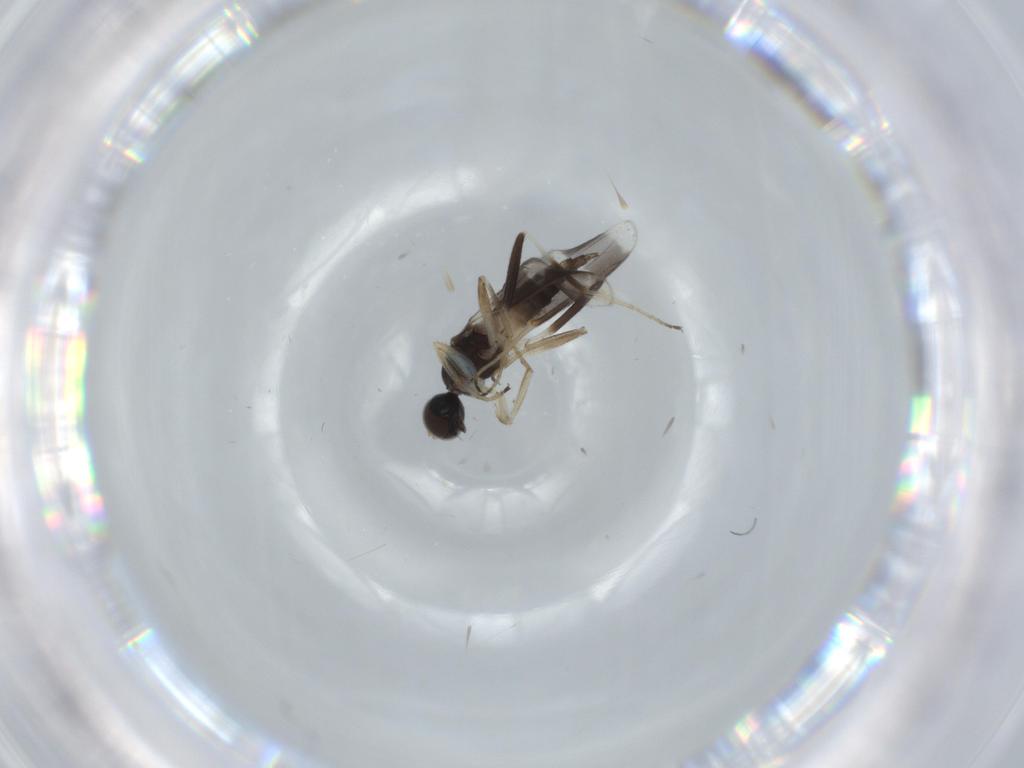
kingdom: Animalia
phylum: Arthropoda
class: Insecta
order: Diptera
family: Hybotidae
